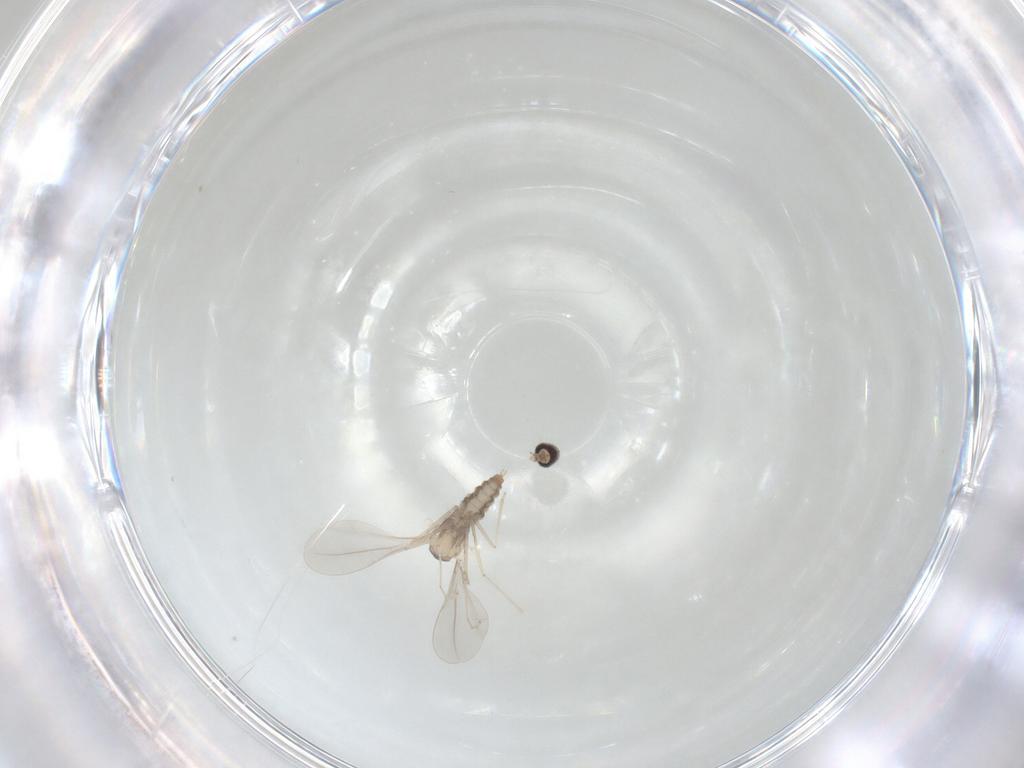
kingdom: Animalia
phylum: Arthropoda
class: Insecta
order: Diptera
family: Cecidomyiidae
